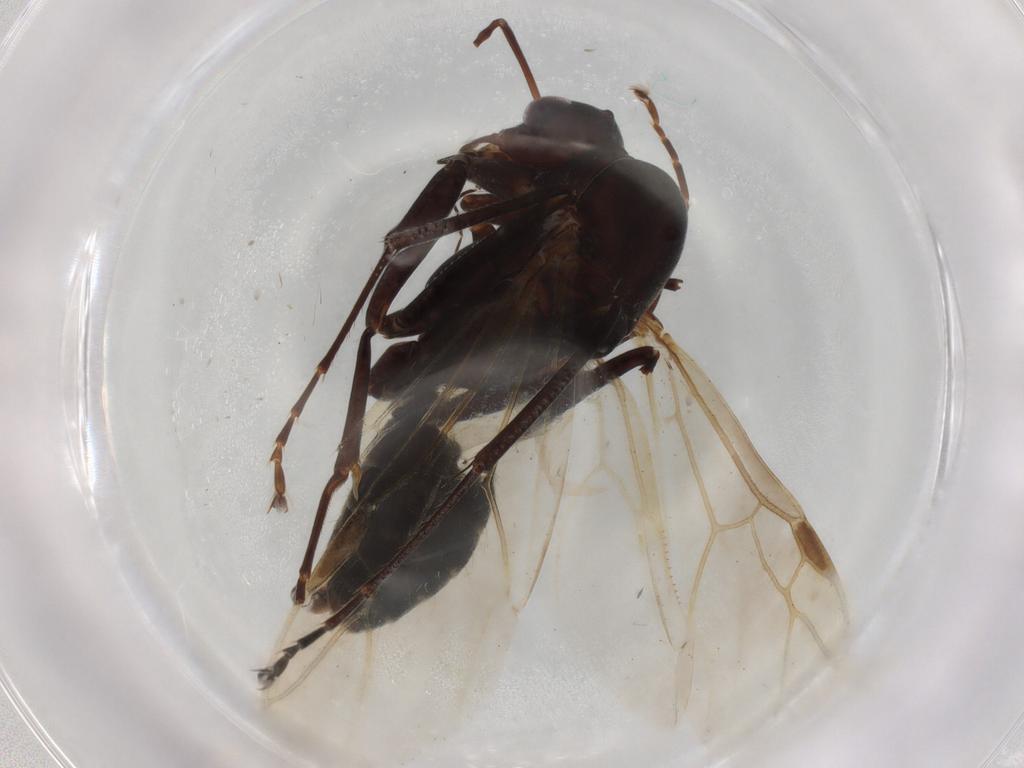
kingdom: Animalia
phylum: Arthropoda
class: Insecta
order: Hymenoptera
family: Formicidae
